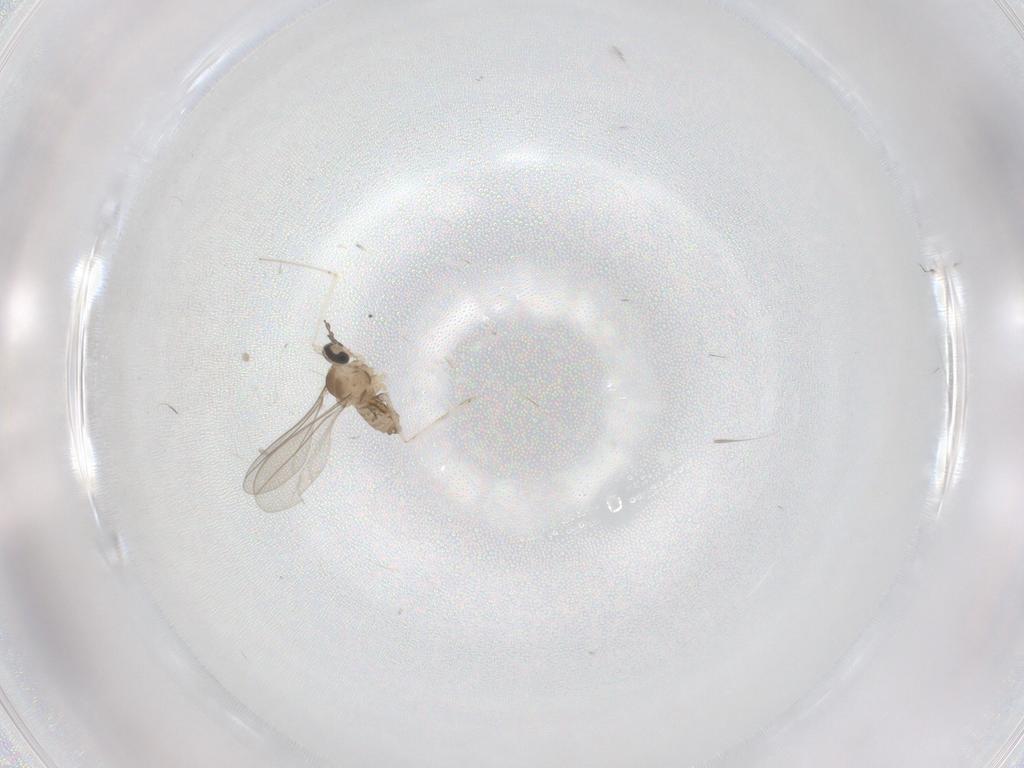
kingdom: Animalia
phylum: Arthropoda
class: Insecta
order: Diptera
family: Cecidomyiidae
